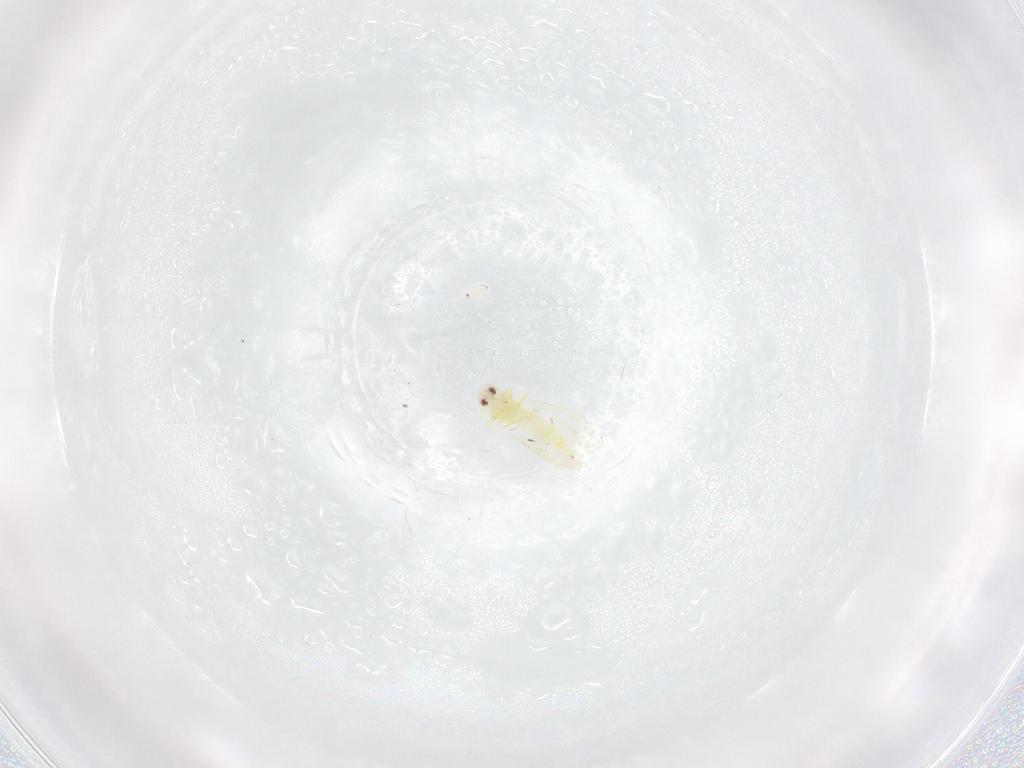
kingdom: Animalia
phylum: Arthropoda
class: Insecta
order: Hemiptera
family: Aleyrodidae
